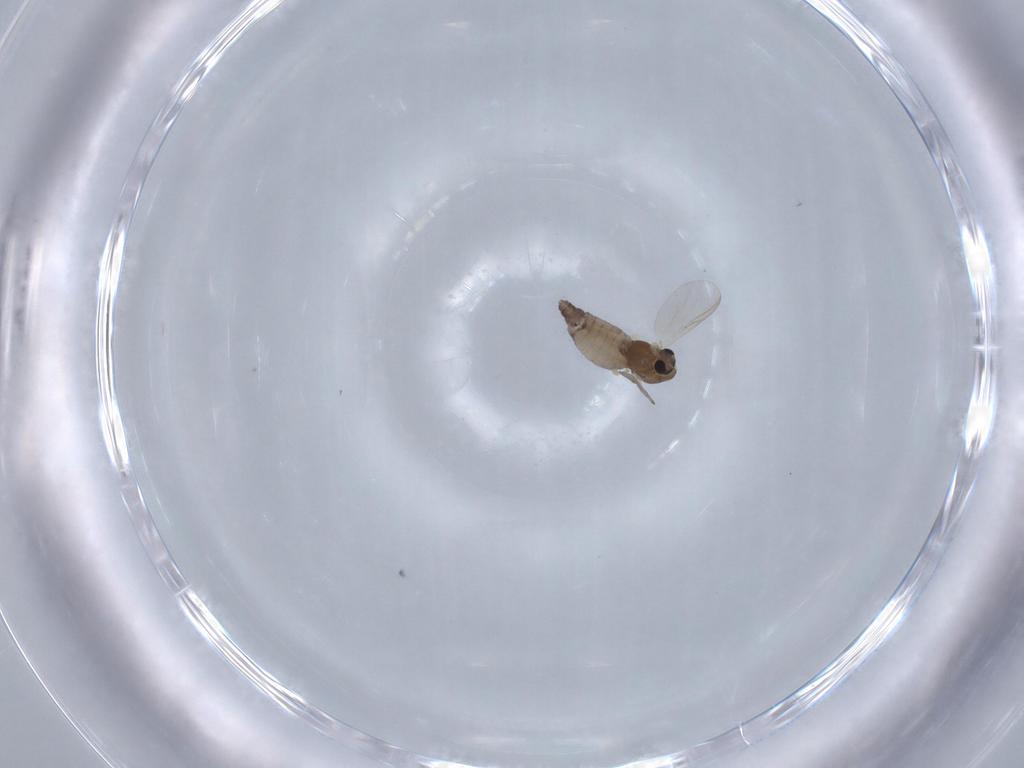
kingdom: Animalia
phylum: Arthropoda
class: Insecta
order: Diptera
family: Chironomidae
